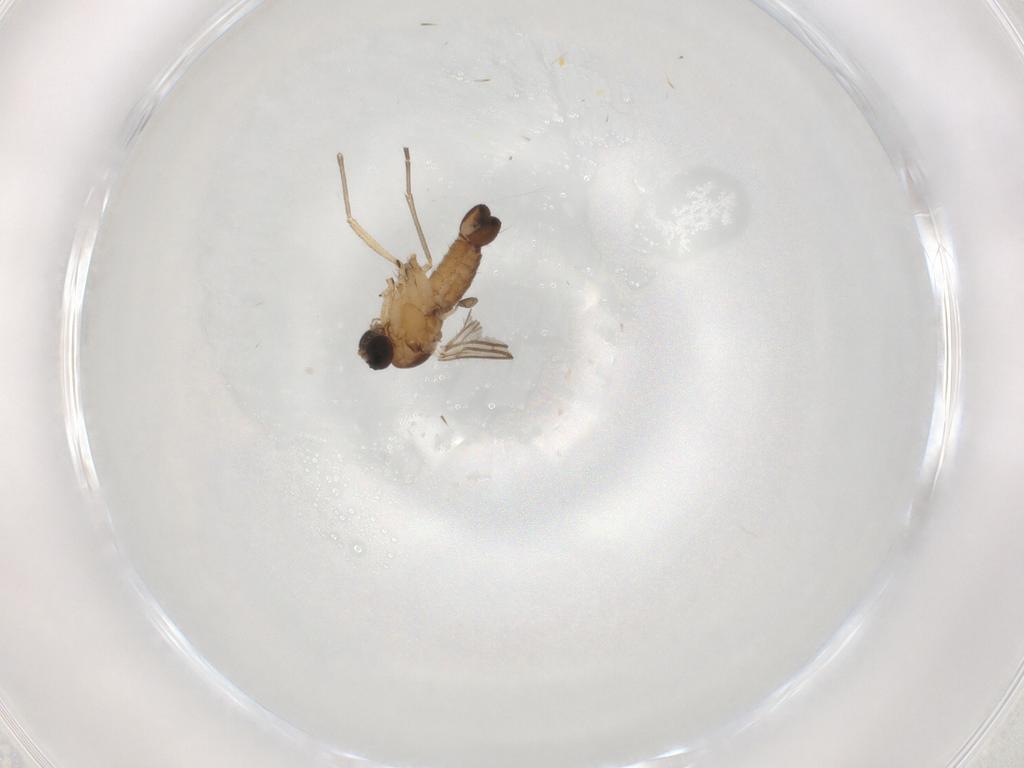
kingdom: Animalia
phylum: Arthropoda
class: Insecta
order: Diptera
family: Sciaridae
